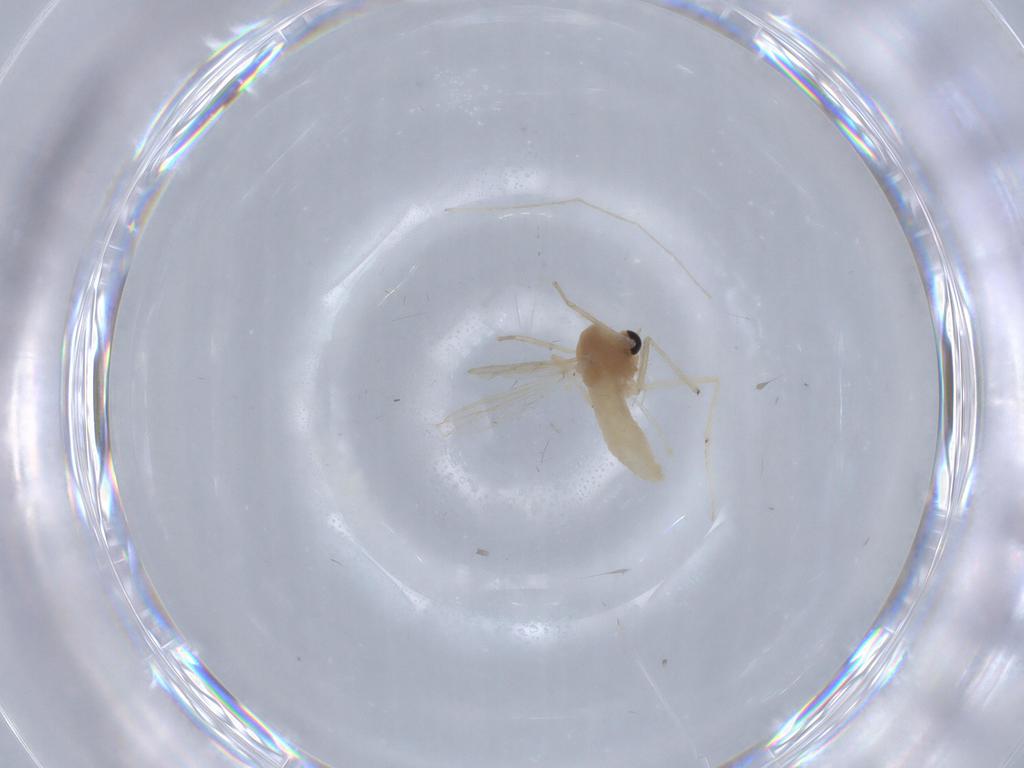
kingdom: Animalia
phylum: Arthropoda
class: Insecta
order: Diptera
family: Chironomidae
